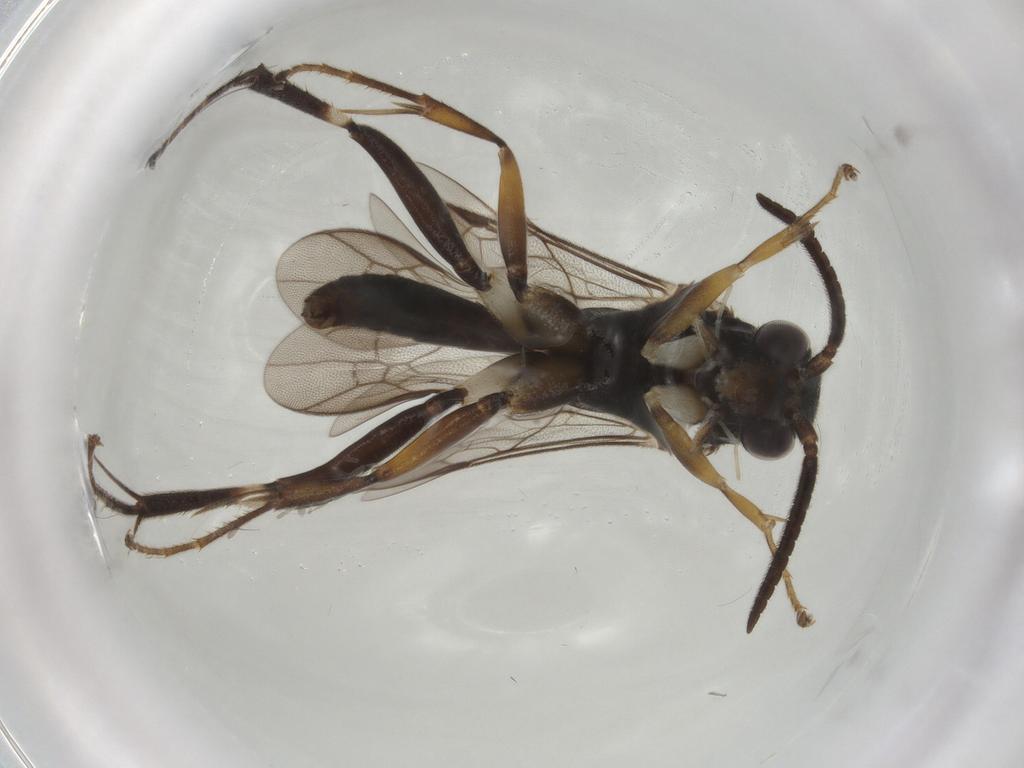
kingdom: Animalia
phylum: Arthropoda
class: Insecta
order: Hymenoptera
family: Pompilidae
